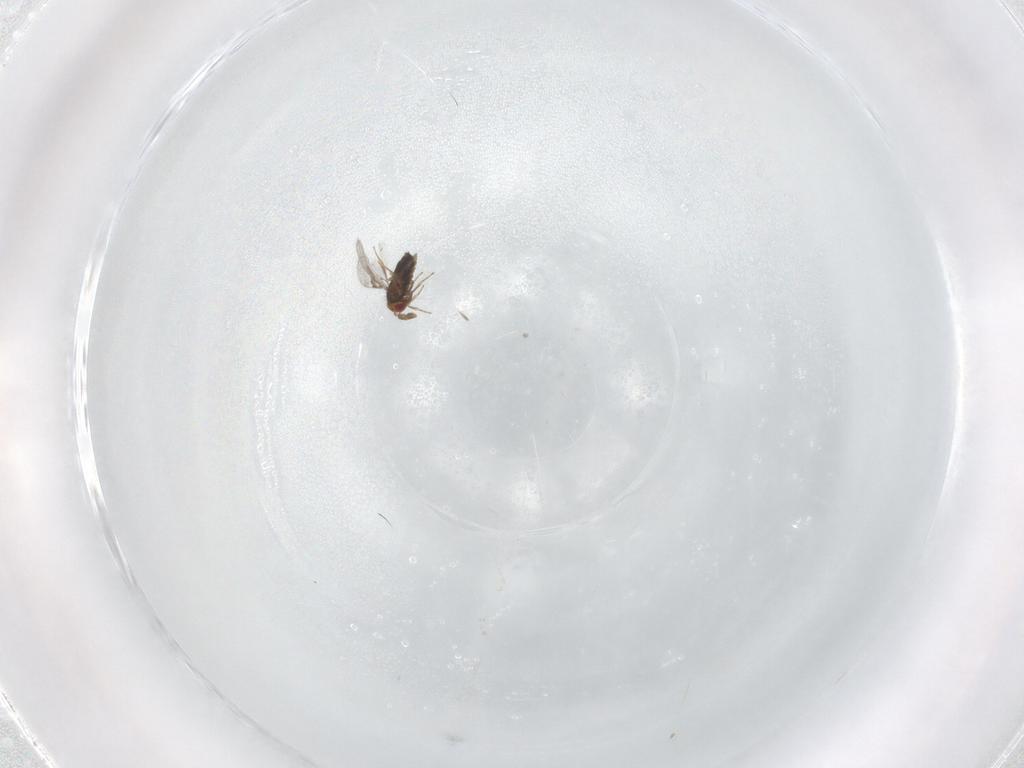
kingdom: Animalia
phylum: Arthropoda
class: Insecta
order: Hymenoptera
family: Trichogrammatidae
